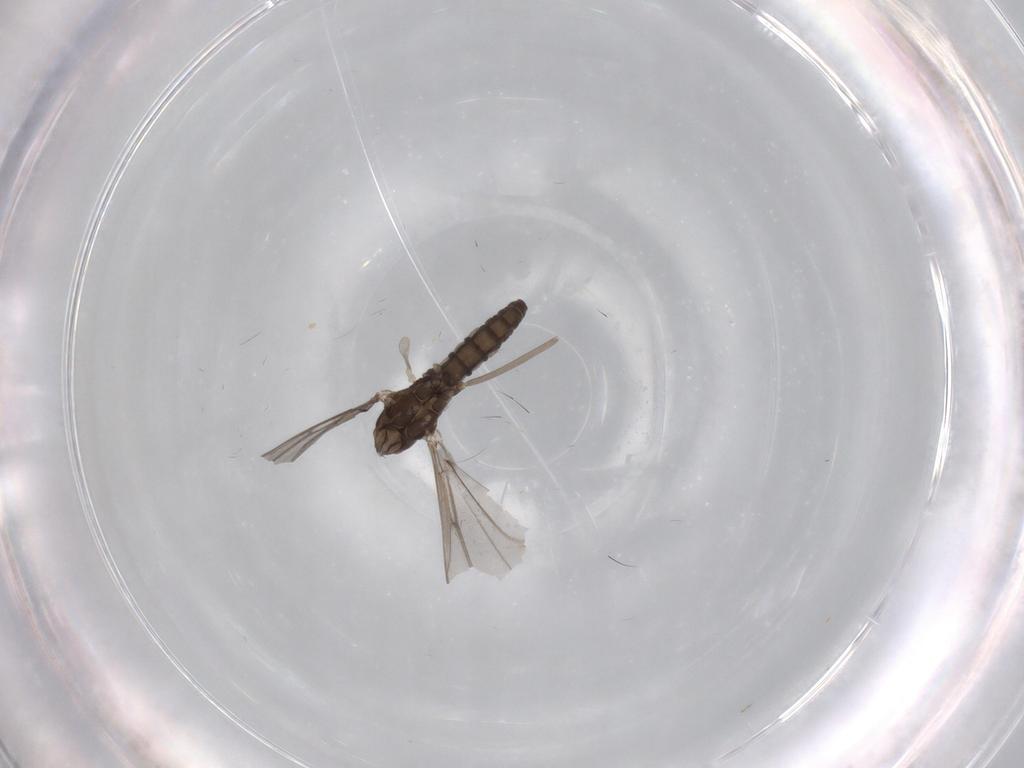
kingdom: Animalia
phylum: Arthropoda
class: Insecta
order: Diptera
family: Cecidomyiidae
